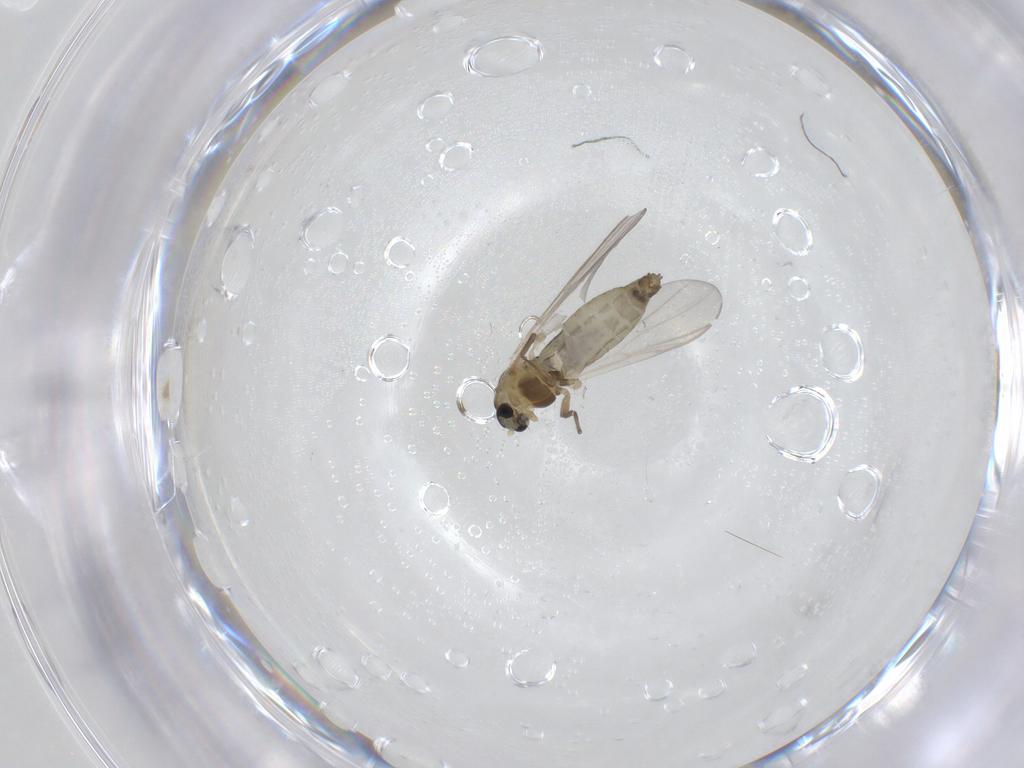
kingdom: Animalia
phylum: Arthropoda
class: Insecta
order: Diptera
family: Chironomidae
